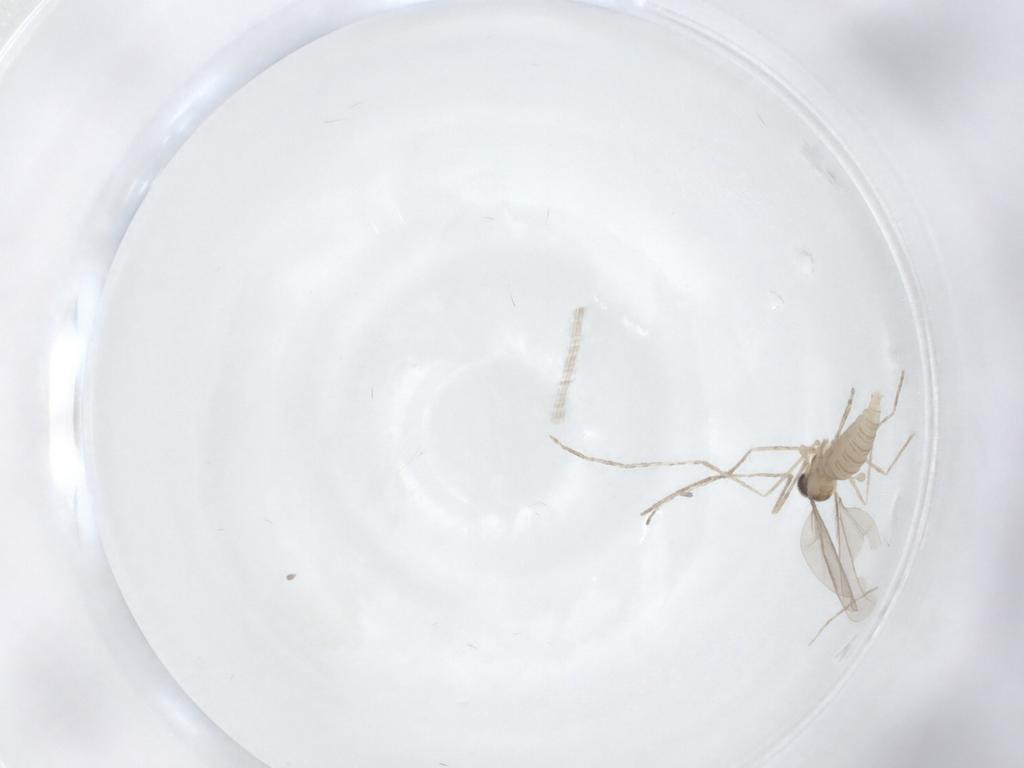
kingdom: Animalia
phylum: Arthropoda
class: Insecta
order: Diptera
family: Cecidomyiidae
